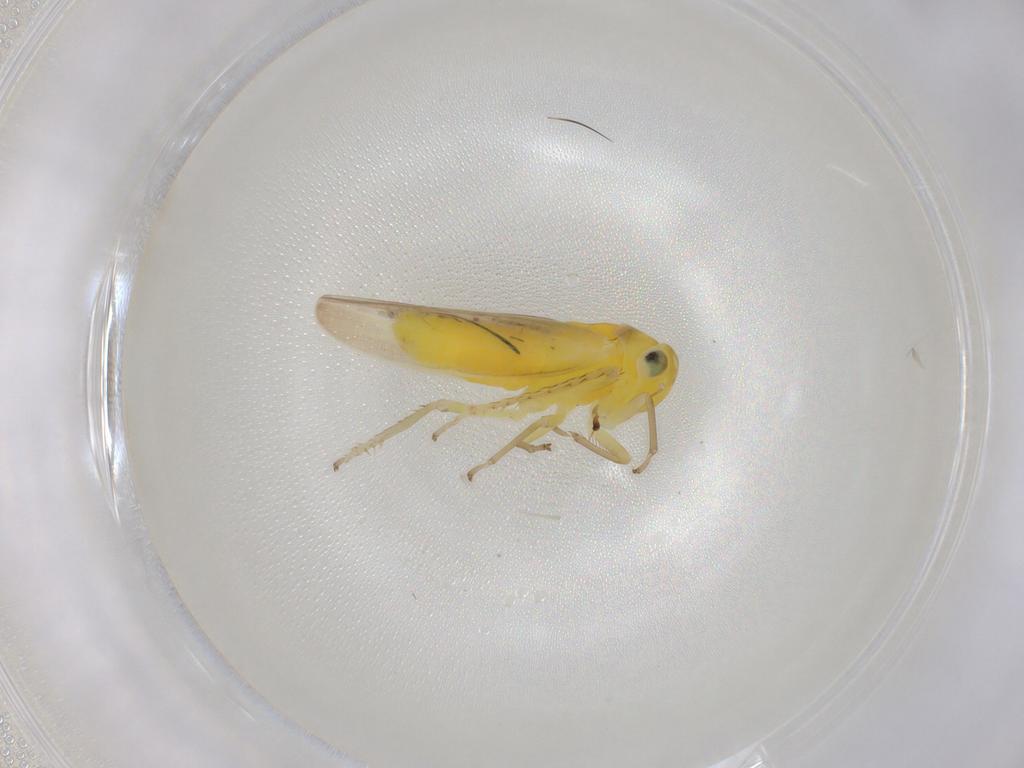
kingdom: Animalia
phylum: Arthropoda
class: Insecta
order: Hemiptera
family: Cicadellidae
